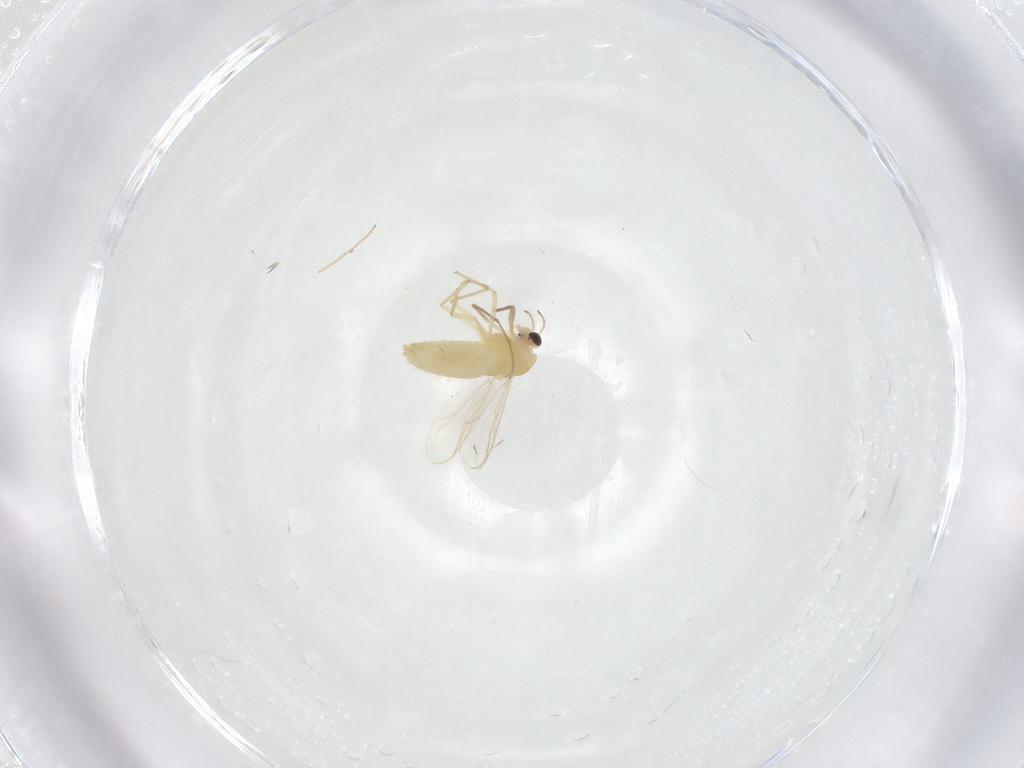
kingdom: Animalia
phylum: Arthropoda
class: Insecta
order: Diptera
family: Chironomidae
